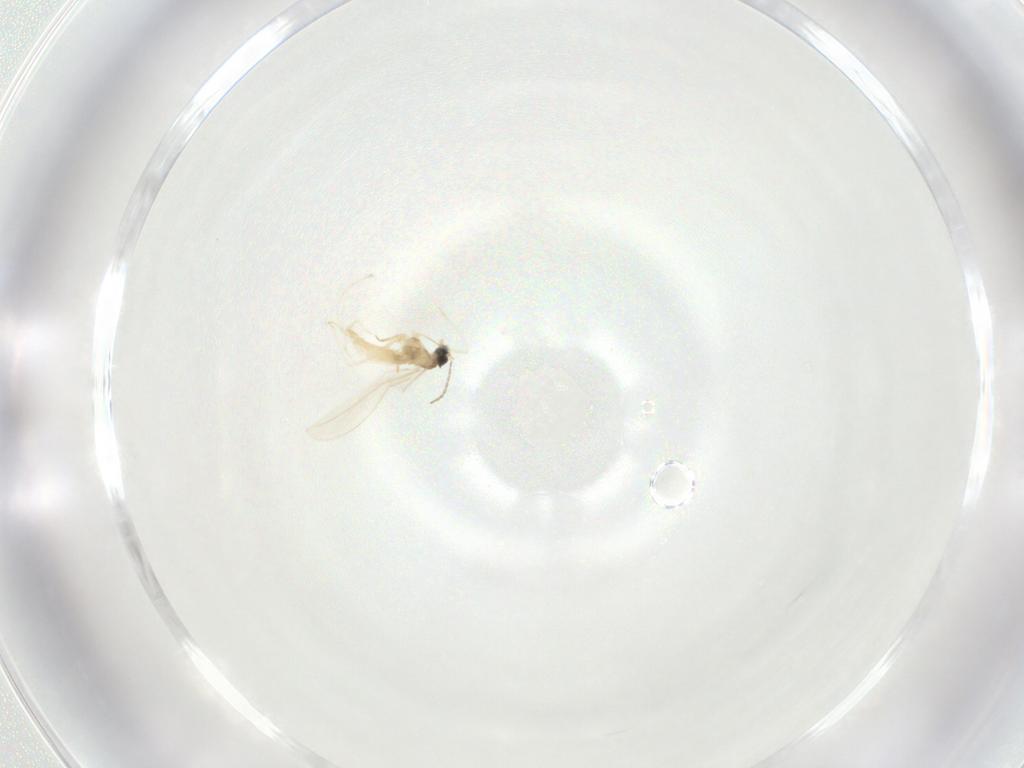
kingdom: Animalia
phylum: Arthropoda
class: Insecta
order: Diptera
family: Cecidomyiidae
